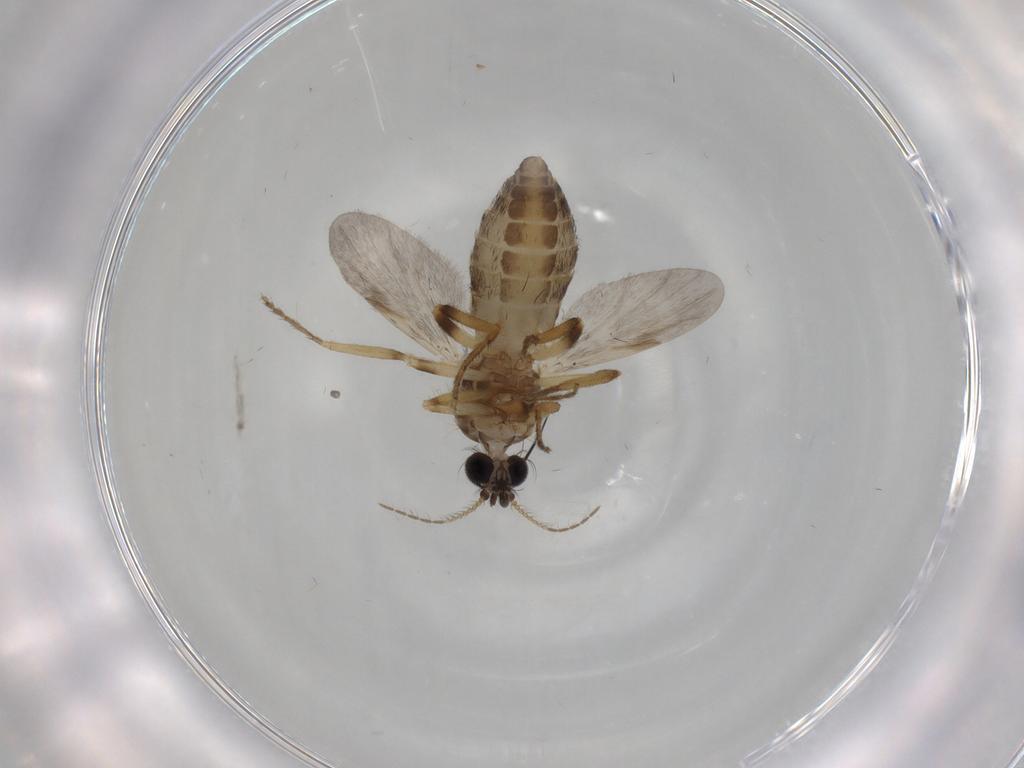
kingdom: Animalia
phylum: Arthropoda
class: Insecta
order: Diptera
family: Ceratopogonidae
